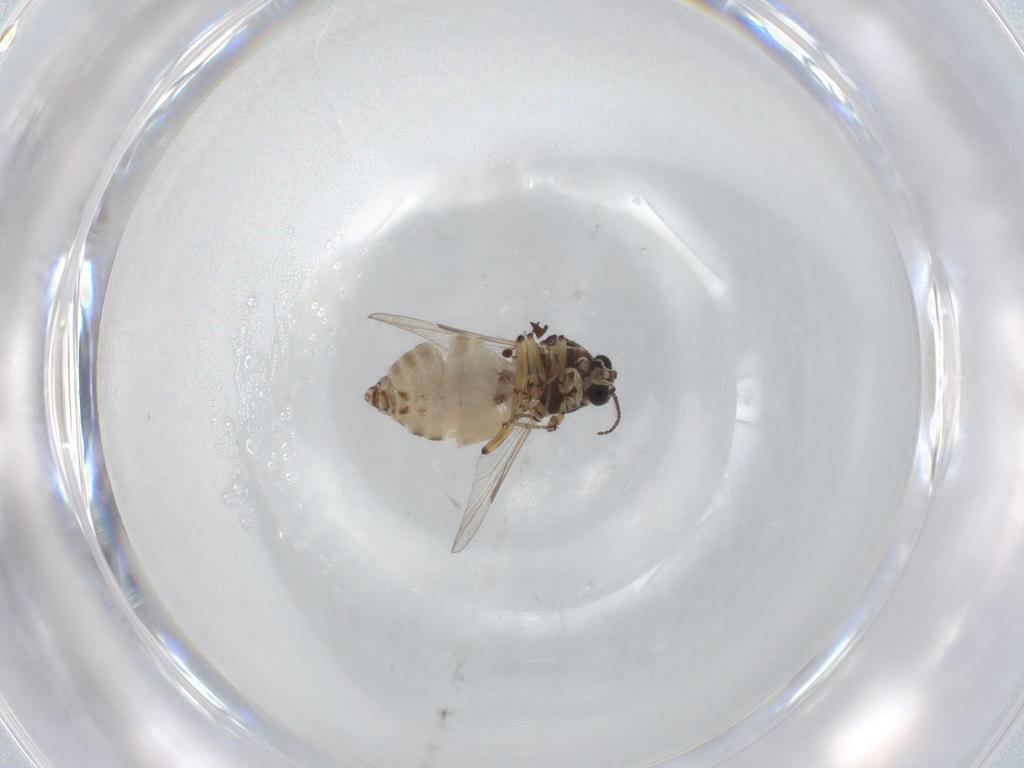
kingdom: Animalia
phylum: Arthropoda
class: Insecta
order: Diptera
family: Ceratopogonidae
